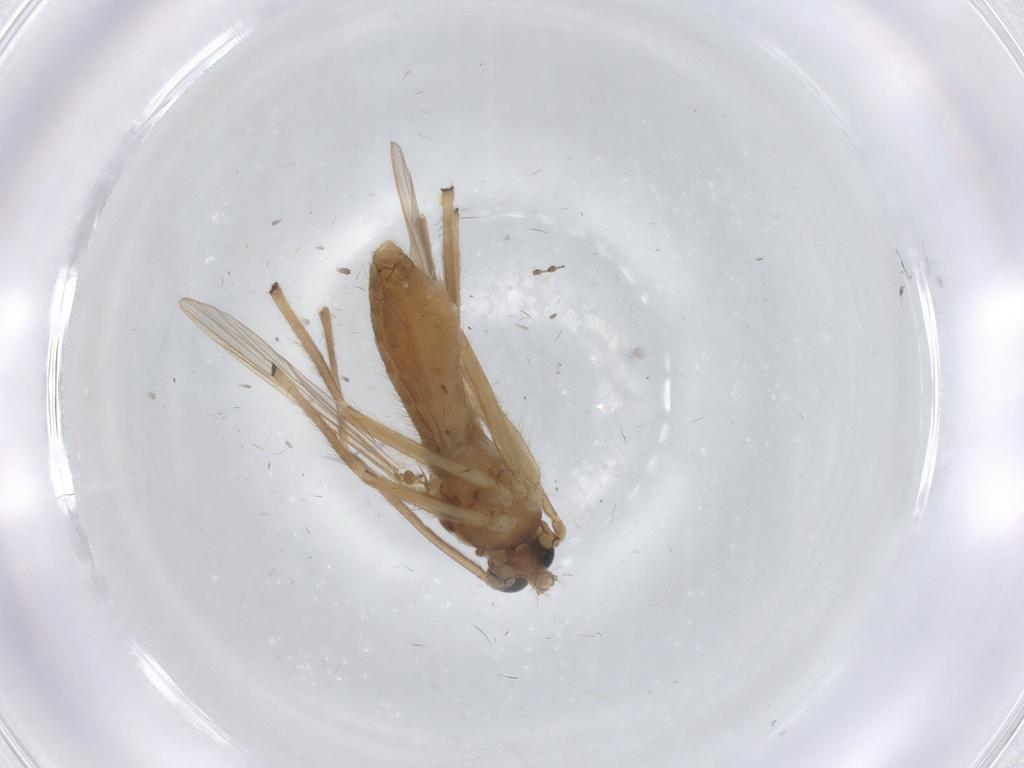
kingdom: Animalia
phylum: Arthropoda
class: Insecta
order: Diptera
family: Chironomidae
